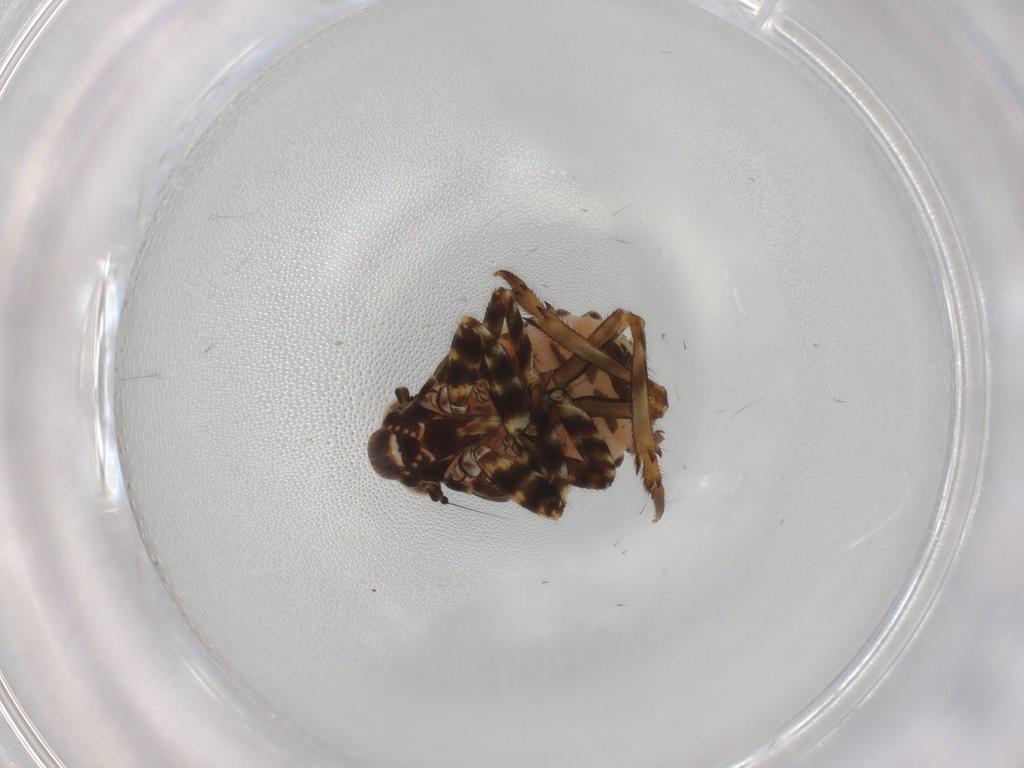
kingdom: Animalia
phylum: Arthropoda
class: Insecta
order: Hemiptera
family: Eurybrachidae
